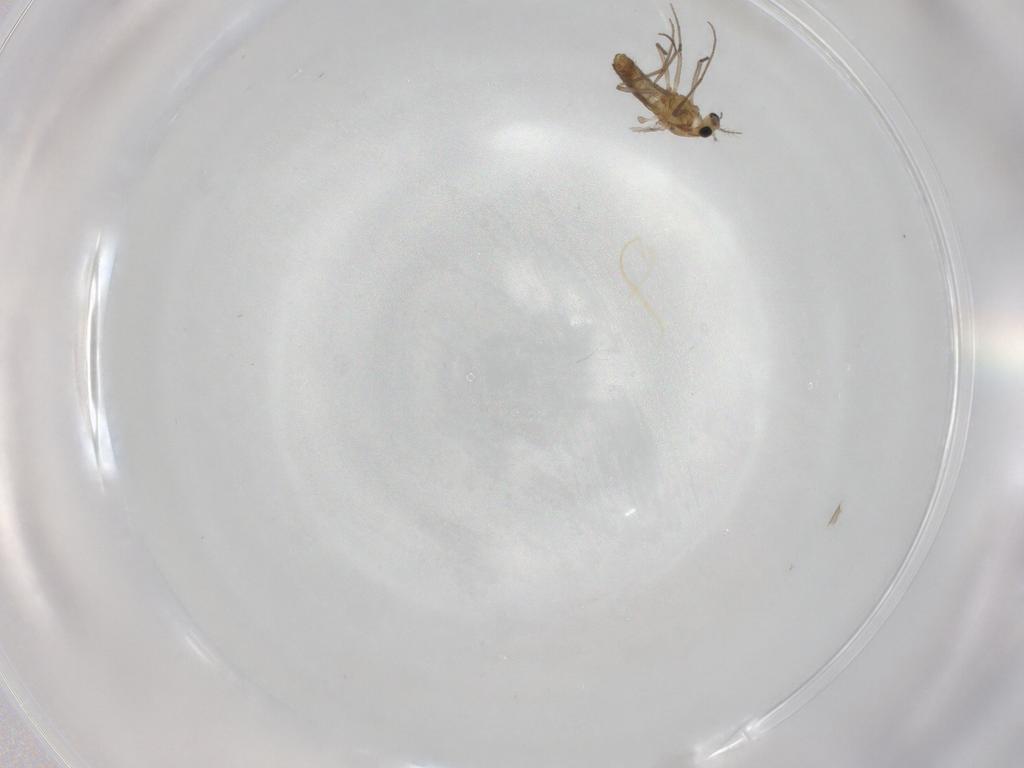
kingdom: Animalia
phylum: Arthropoda
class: Insecta
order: Diptera
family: Chironomidae
